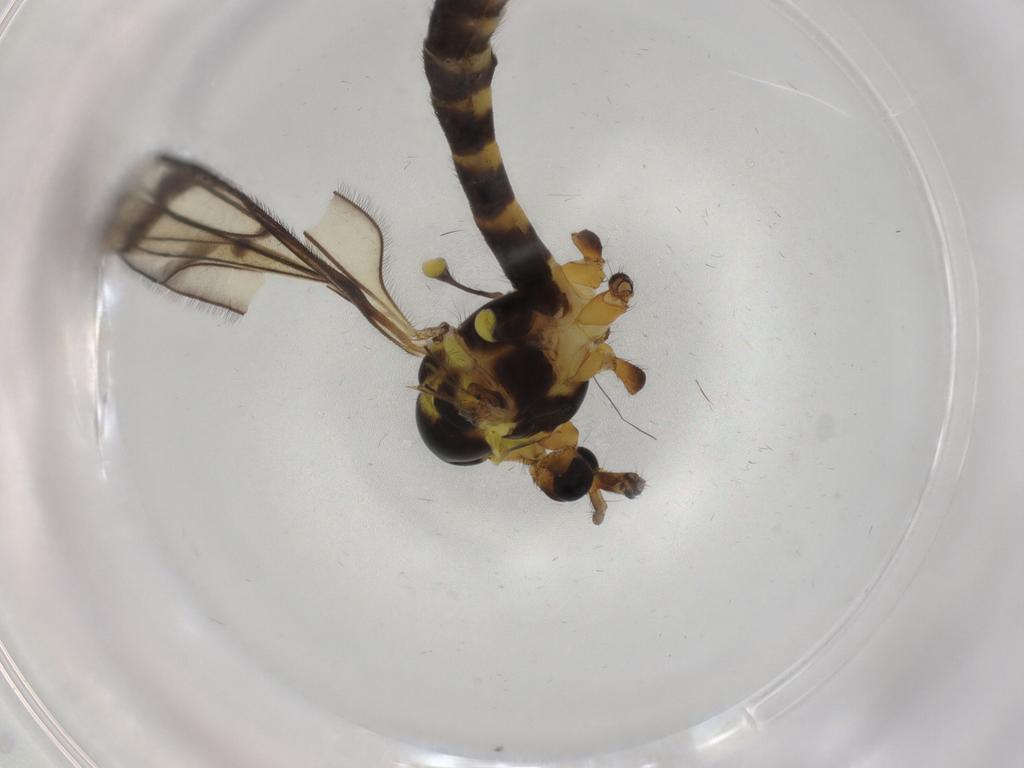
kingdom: Animalia
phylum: Arthropoda
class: Insecta
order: Diptera
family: Limoniidae
